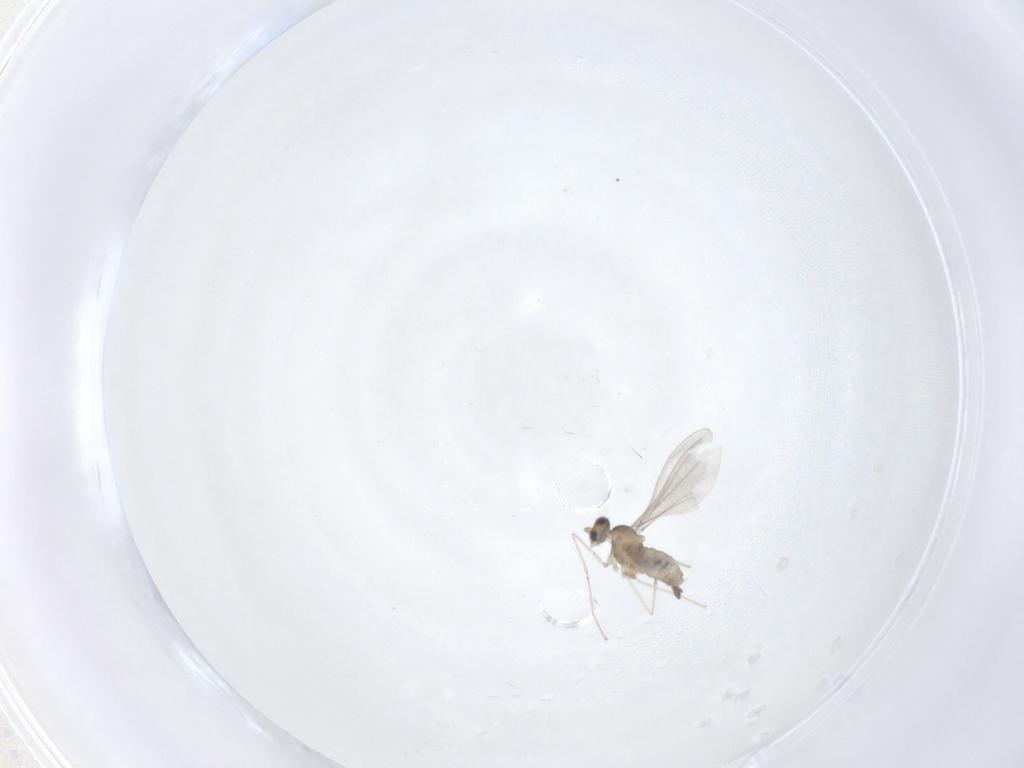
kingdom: Animalia
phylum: Arthropoda
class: Insecta
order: Diptera
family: Cecidomyiidae
